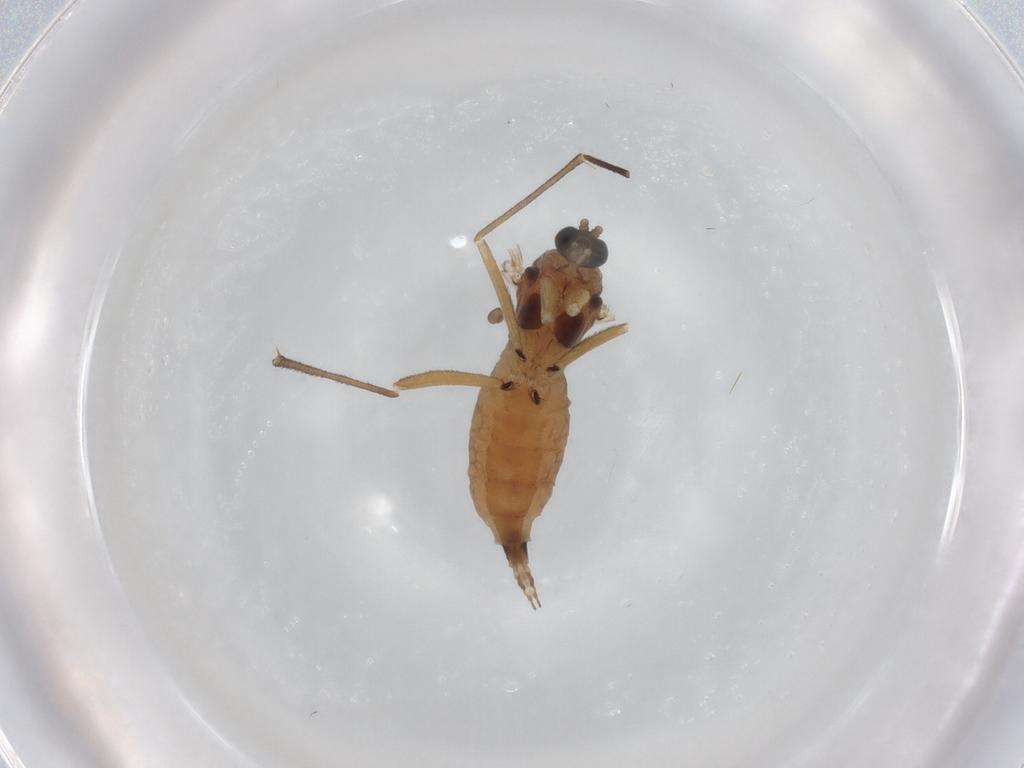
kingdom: Animalia
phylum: Arthropoda
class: Insecta
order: Diptera
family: Sciaridae
